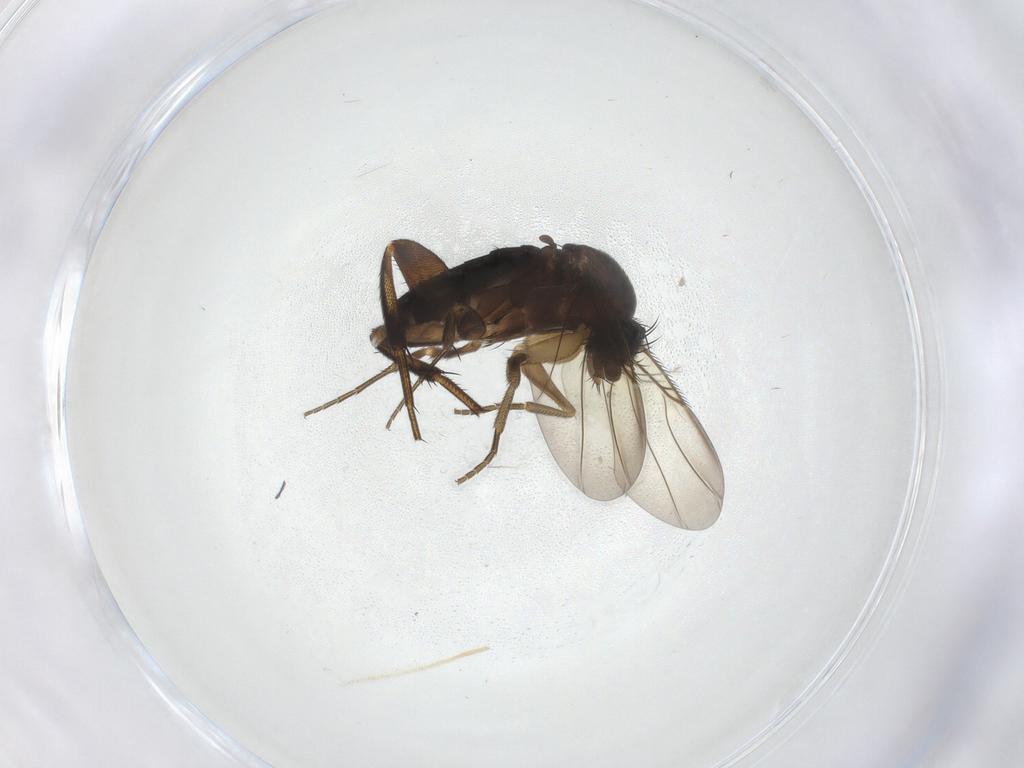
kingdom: Animalia
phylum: Arthropoda
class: Insecta
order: Diptera
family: Phoridae
